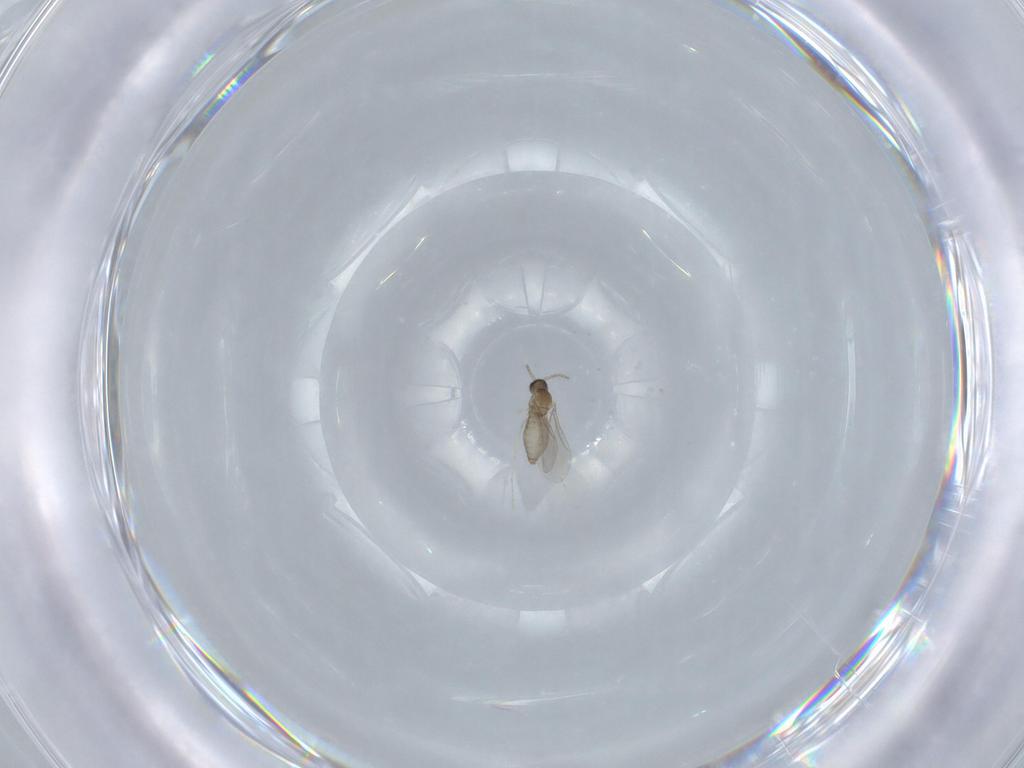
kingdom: Animalia
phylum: Arthropoda
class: Insecta
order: Diptera
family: Cecidomyiidae
